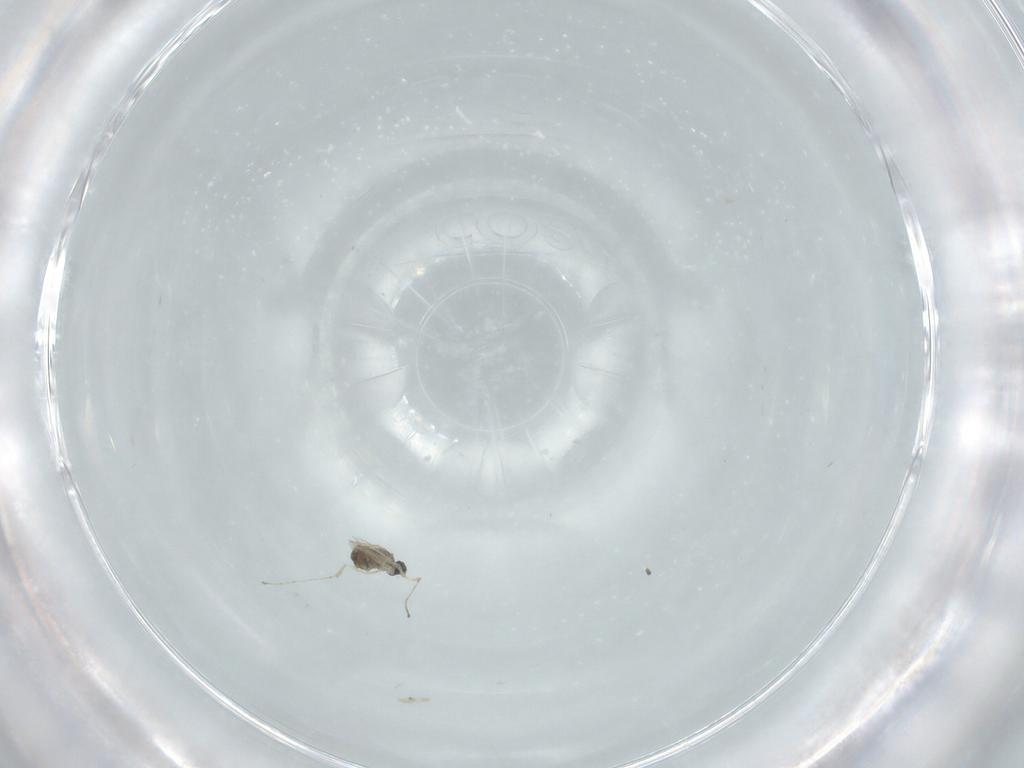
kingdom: Animalia
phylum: Arthropoda
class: Insecta
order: Diptera
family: Cecidomyiidae
